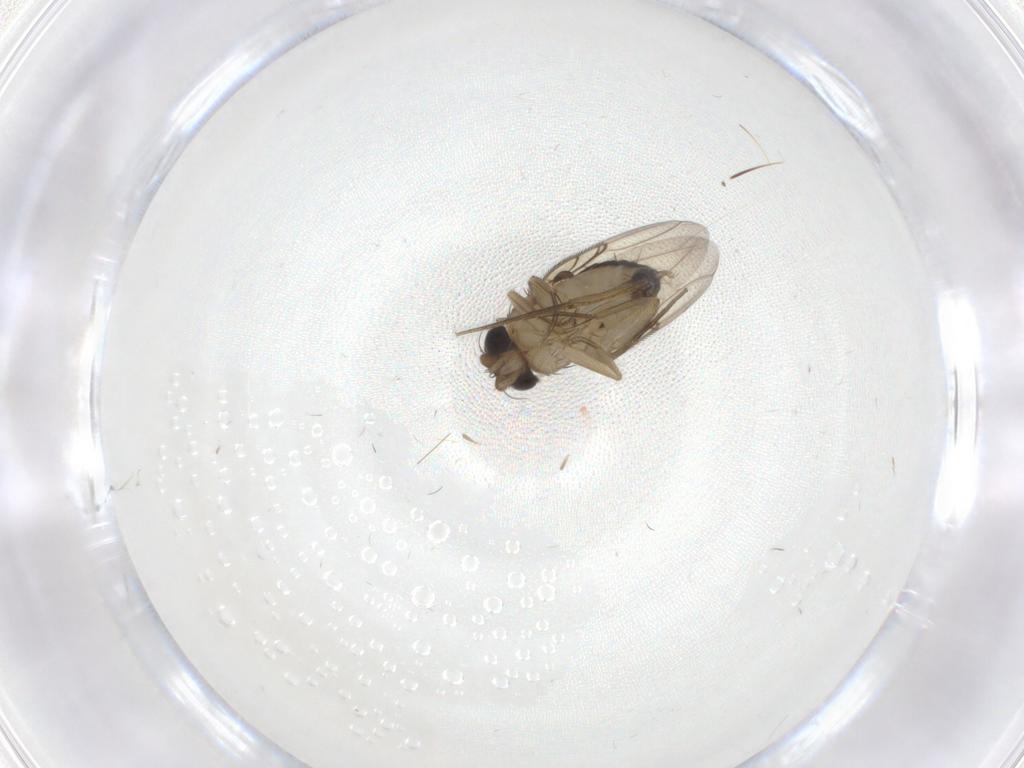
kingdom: Animalia
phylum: Arthropoda
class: Insecta
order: Diptera
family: Phoridae
